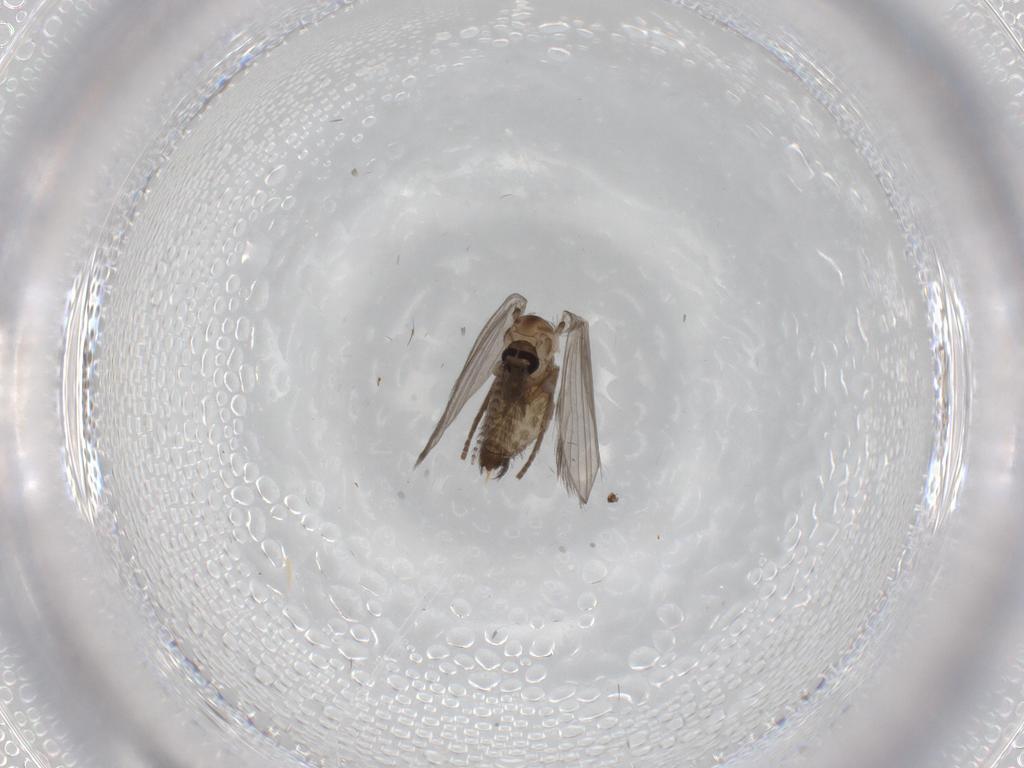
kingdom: Animalia
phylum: Arthropoda
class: Insecta
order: Diptera
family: Psychodidae
